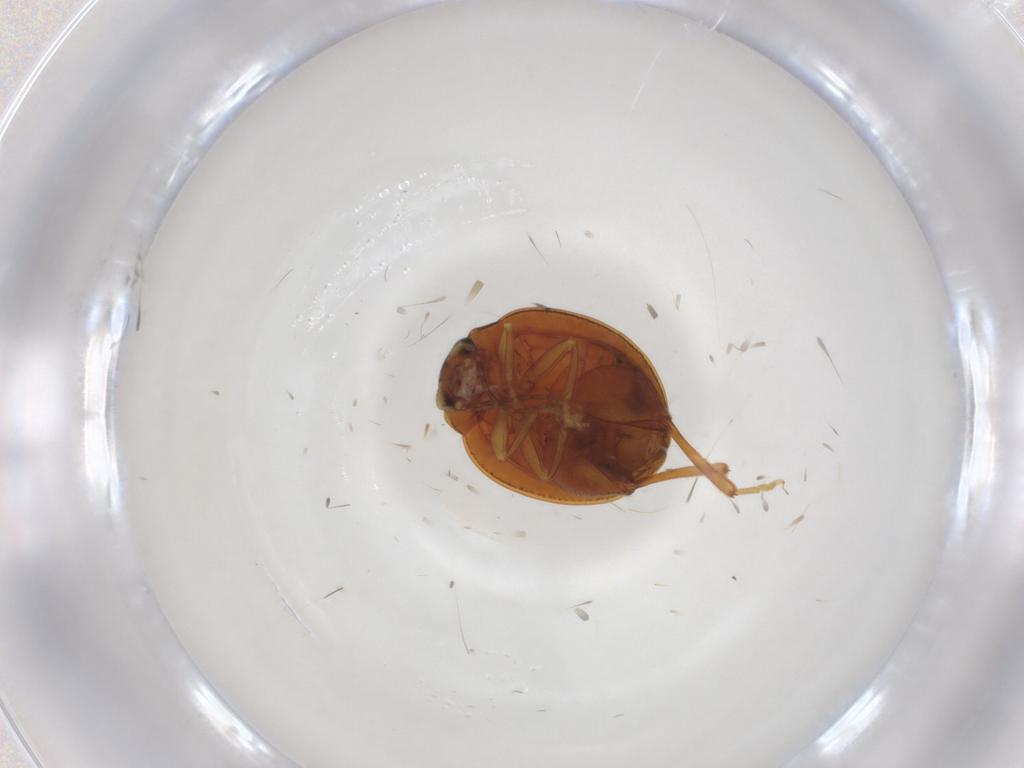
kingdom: Animalia
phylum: Arthropoda
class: Insecta
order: Coleoptera
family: Chrysomelidae
